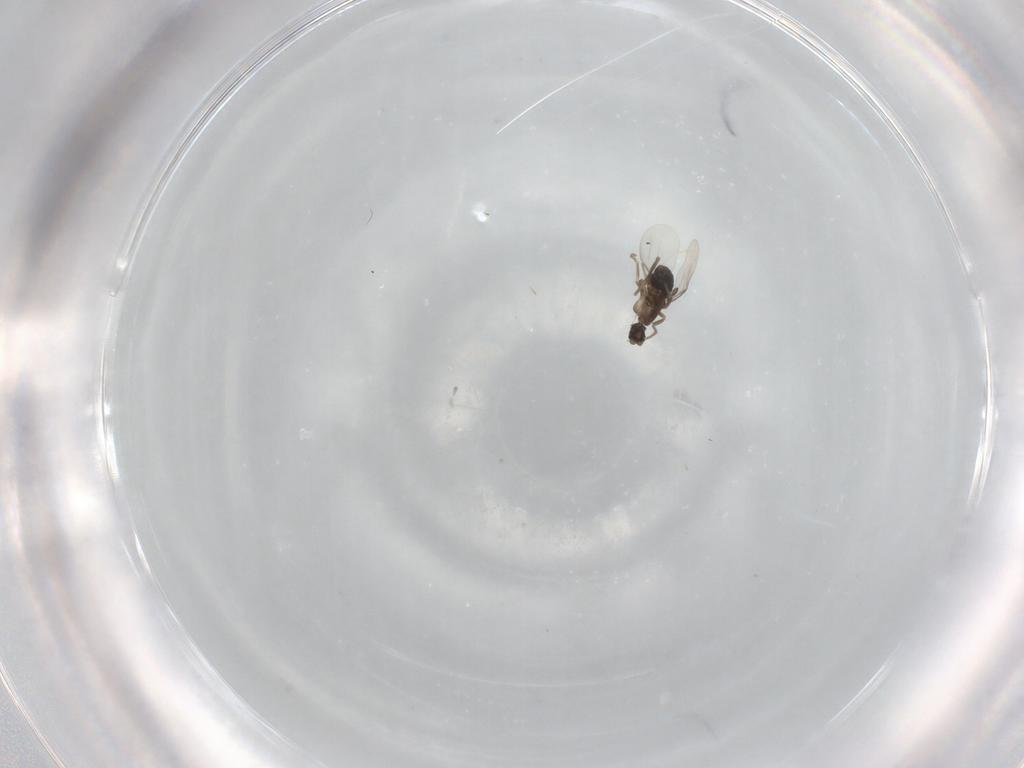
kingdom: Animalia
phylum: Arthropoda
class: Insecta
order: Diptera
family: Phoridae
